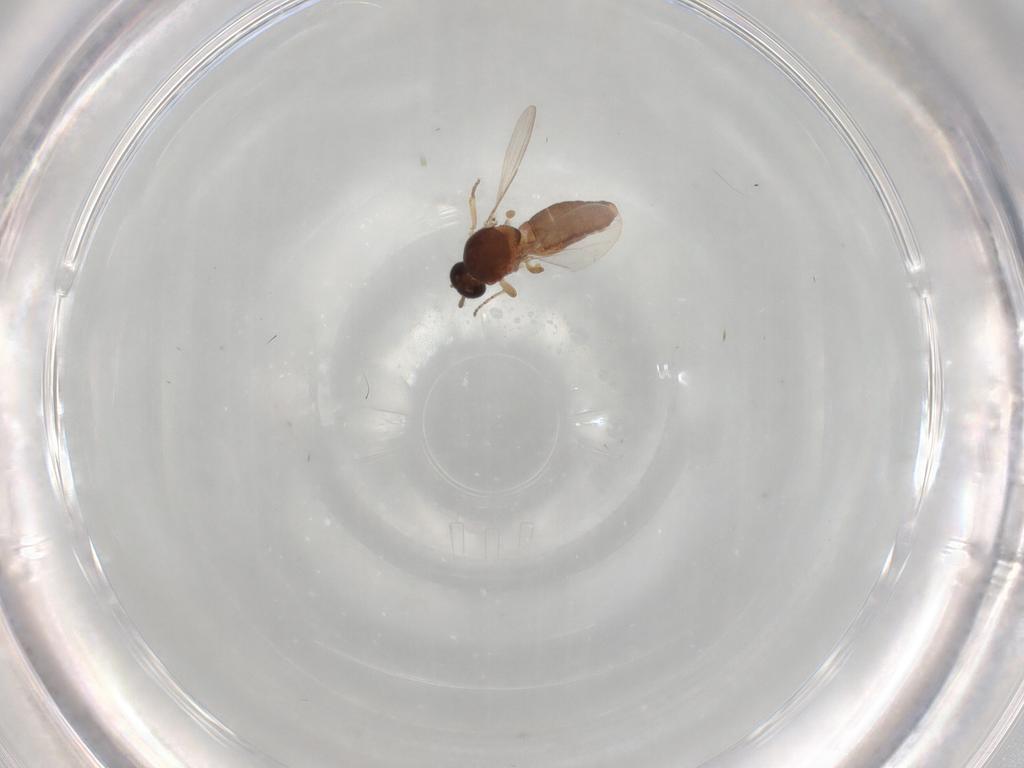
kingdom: Animalia
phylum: Arthropoda
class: Insecta
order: Diptera
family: Ceratopogonidae
